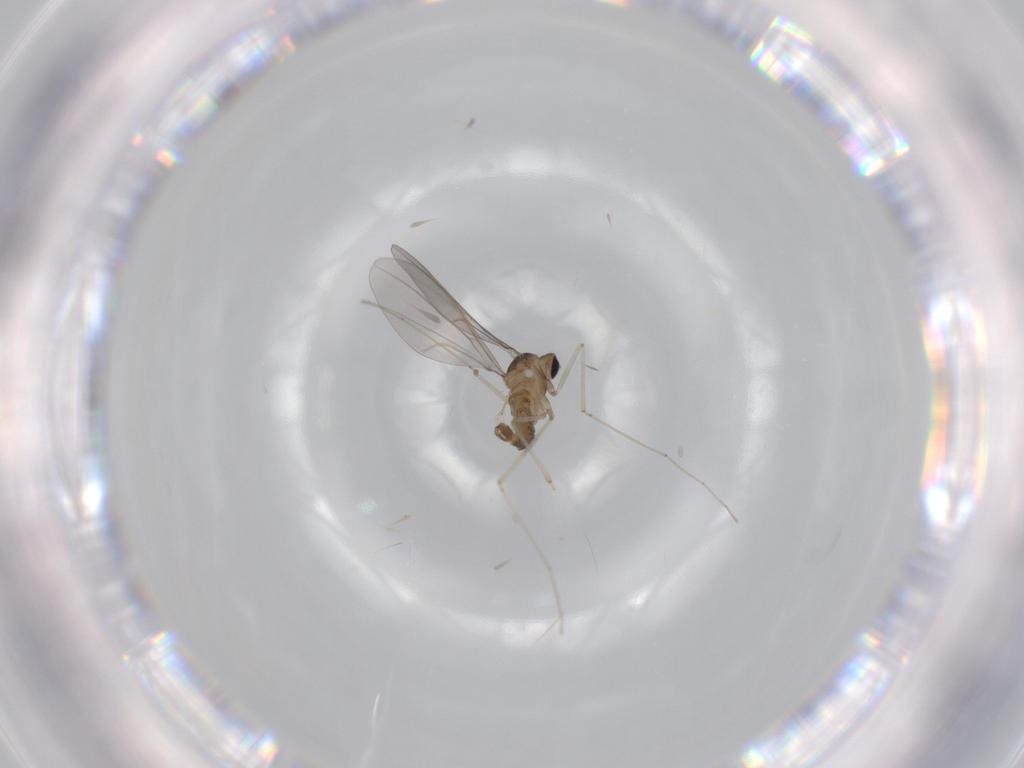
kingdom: Animalia
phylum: Arthropoda
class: Insecta
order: Diptera
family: Cecidomyiidae
